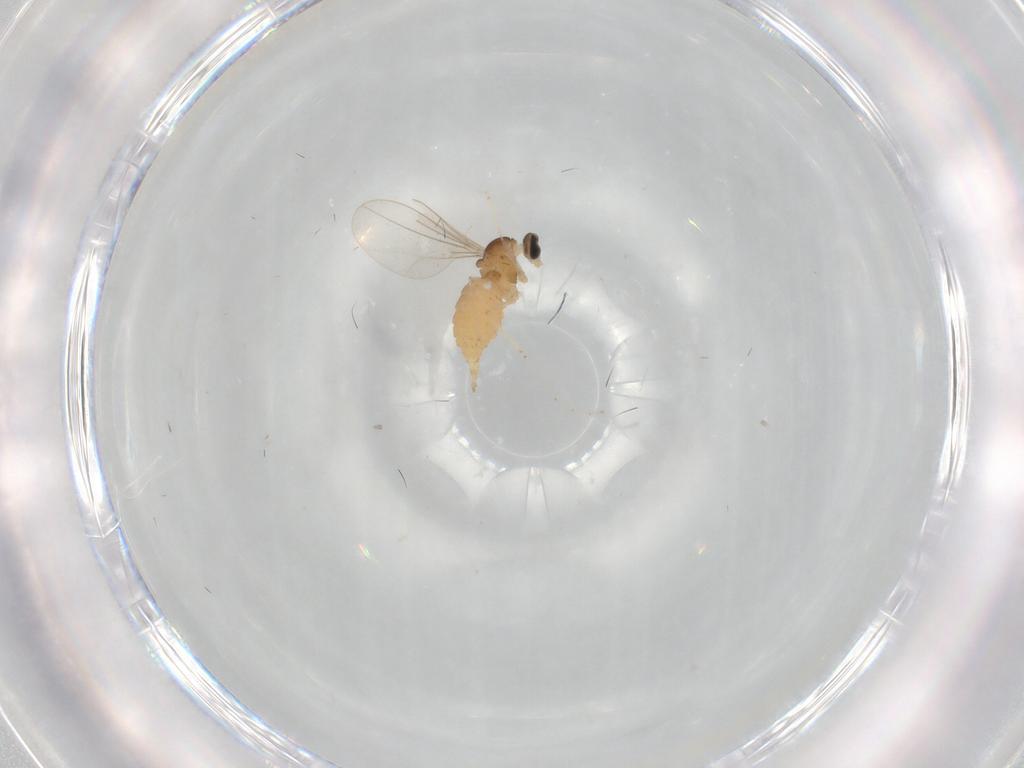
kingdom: Animalia
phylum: Arthropoda
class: Insecta
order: Diptera
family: Cecidomyiidae
